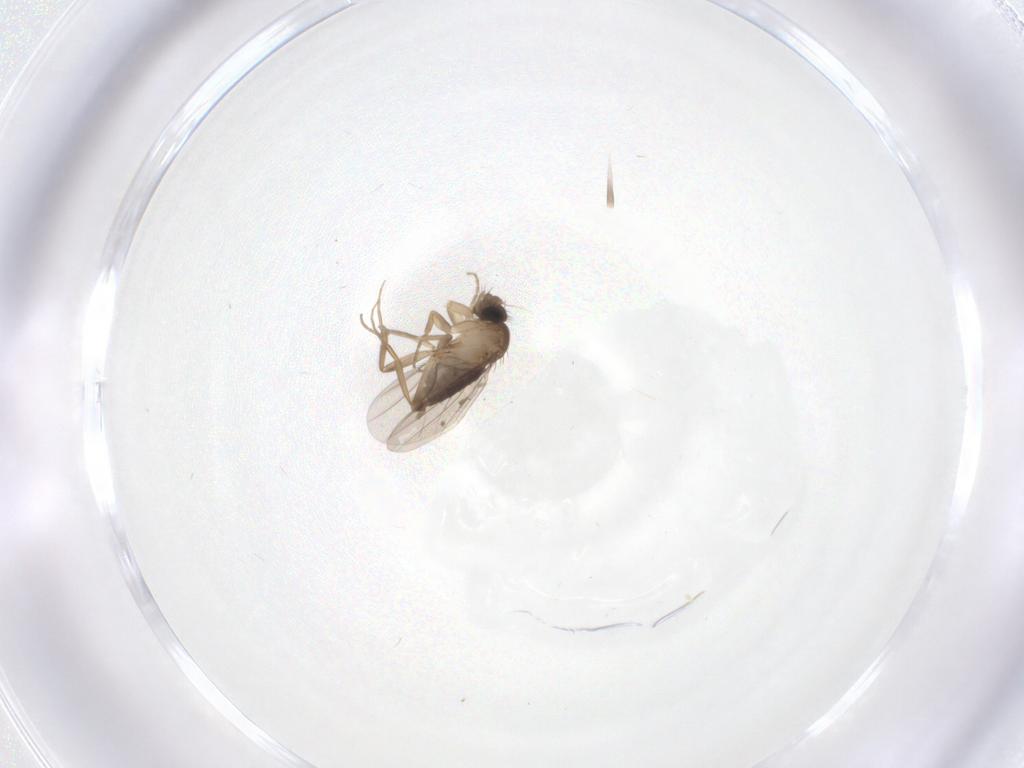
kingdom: Animalia
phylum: Arthropoda
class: Insecta
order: Diptera
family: Phoridae
